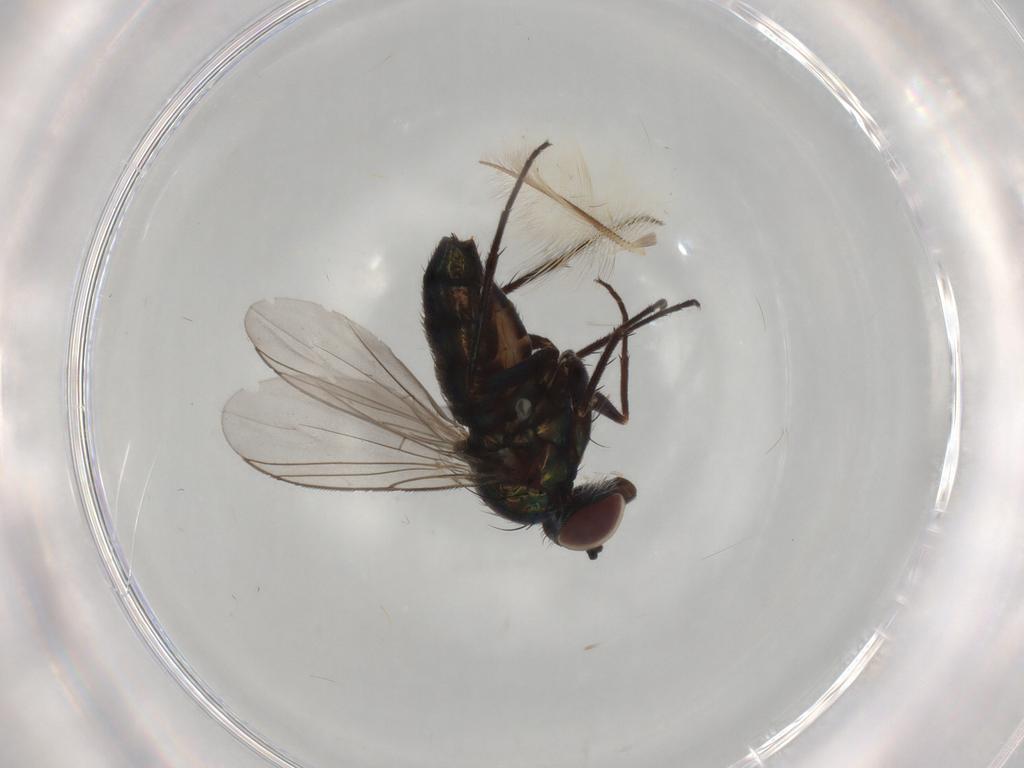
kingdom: Animalia
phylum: Arthropoda
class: Insecta
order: Diptera
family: Dolichopodidae
